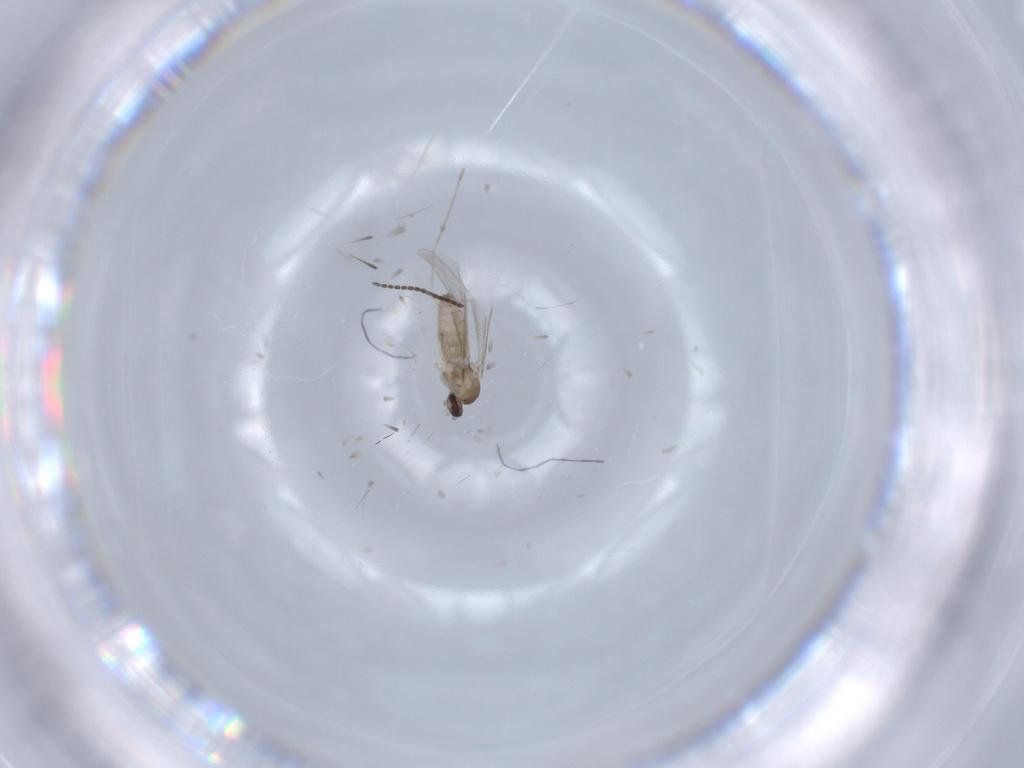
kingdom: Animalia
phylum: Arthropoda
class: Insecta
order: Diptera
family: Cecidomyiidae
